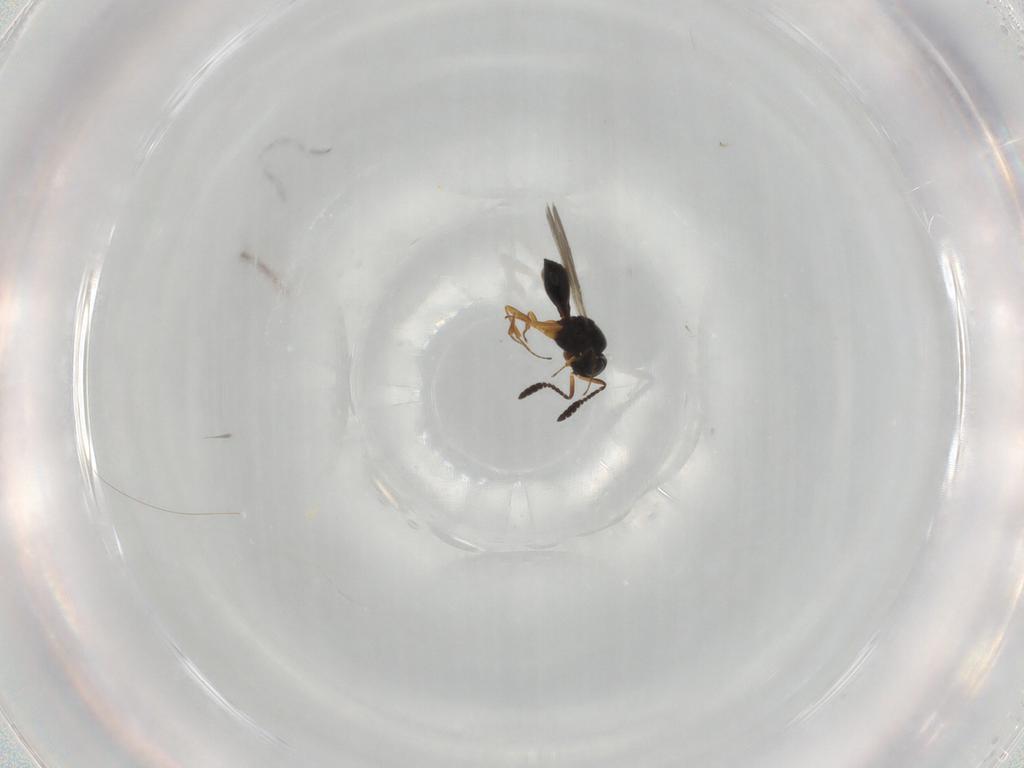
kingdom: Animalia
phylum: Arthropoda
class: Insecta
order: Hymenoptera
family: Scelionidae
